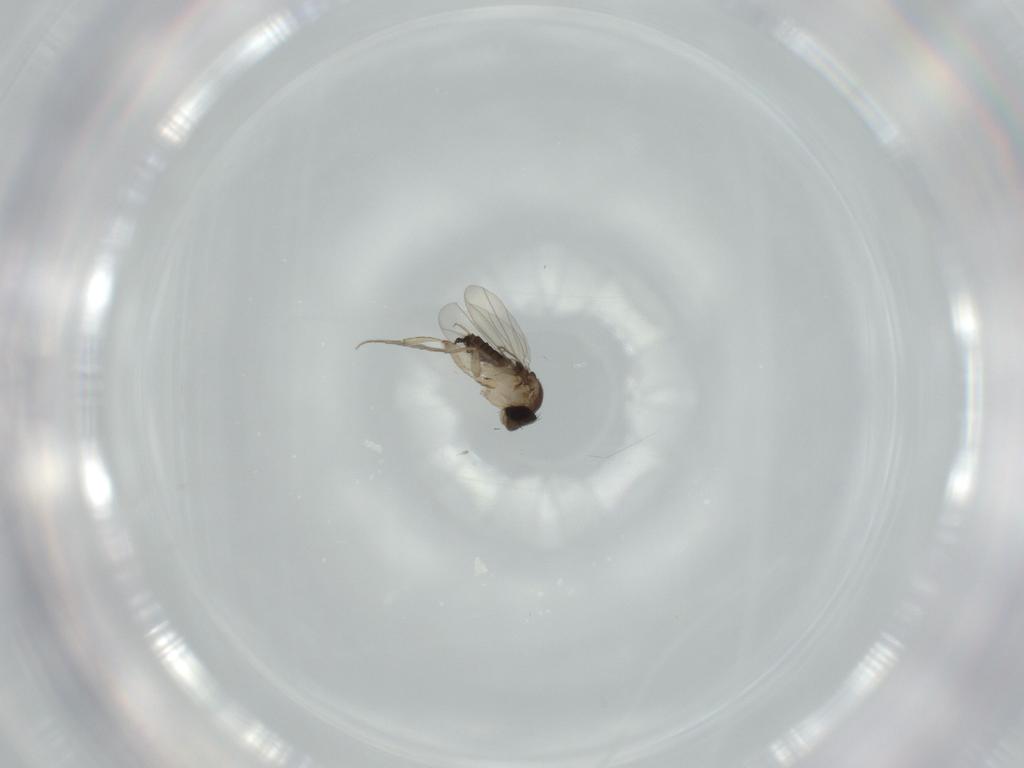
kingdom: Animalia
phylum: Arthropoda
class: Insecta
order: Diptera
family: Phoridae
